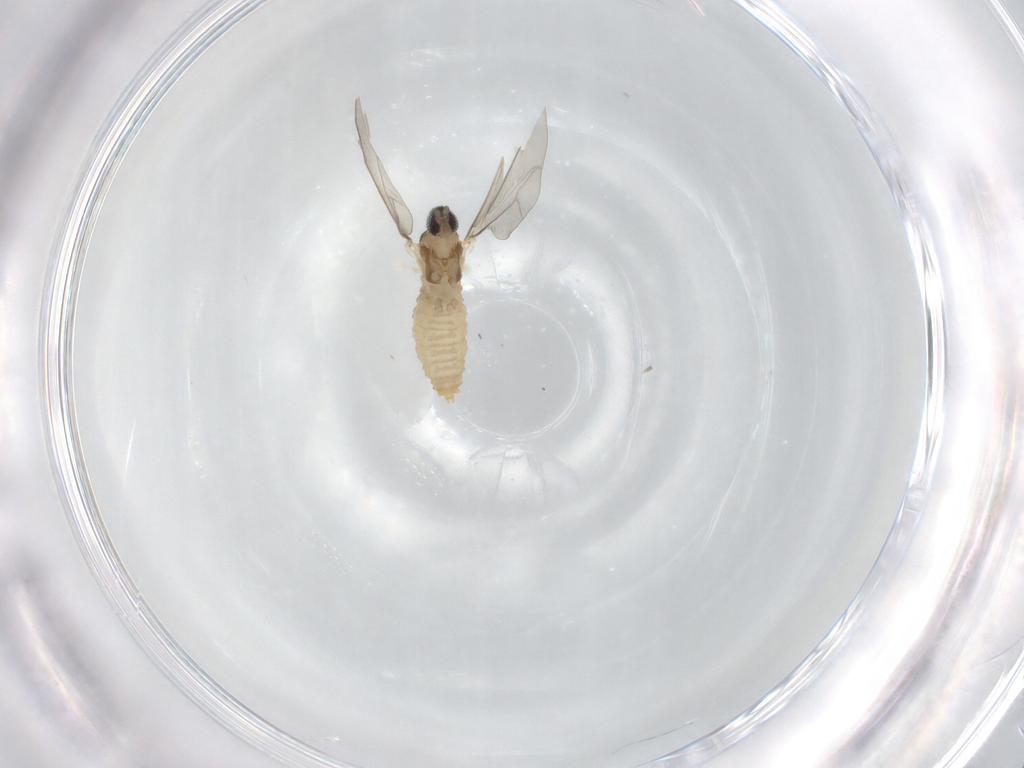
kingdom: Animalia
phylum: Arthropoda
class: Insecta
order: Diptera
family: Cecidomyiidae
